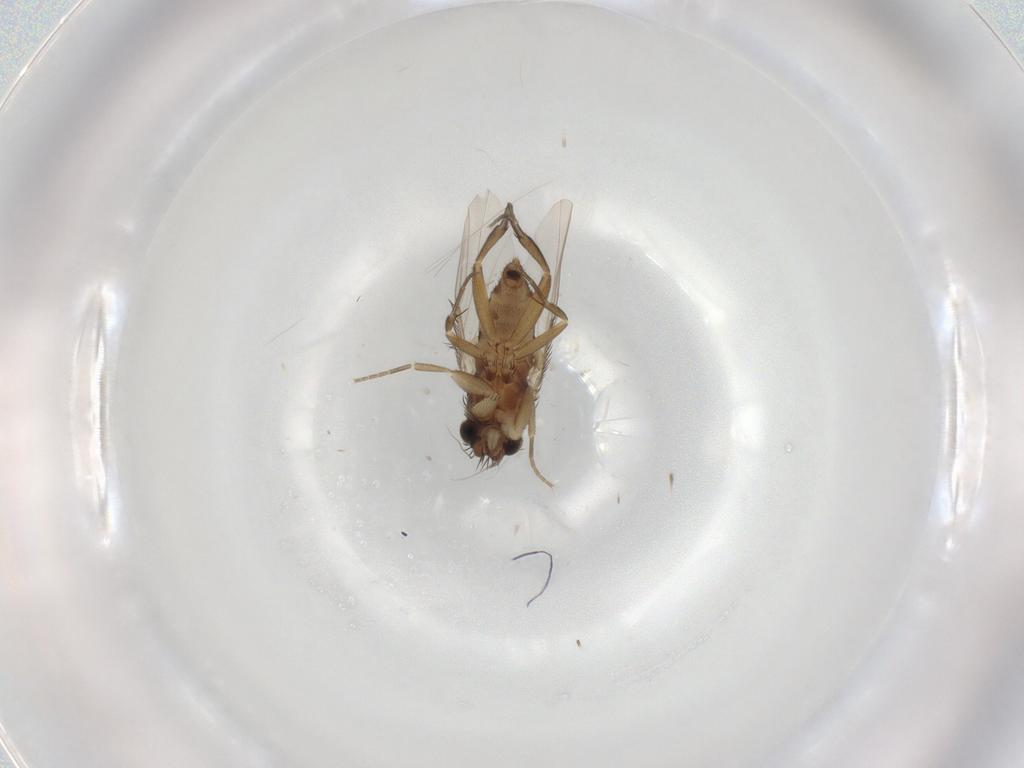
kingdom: Animalia
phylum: Arthropoda
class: Insecta
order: Diptera
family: Phoridae
